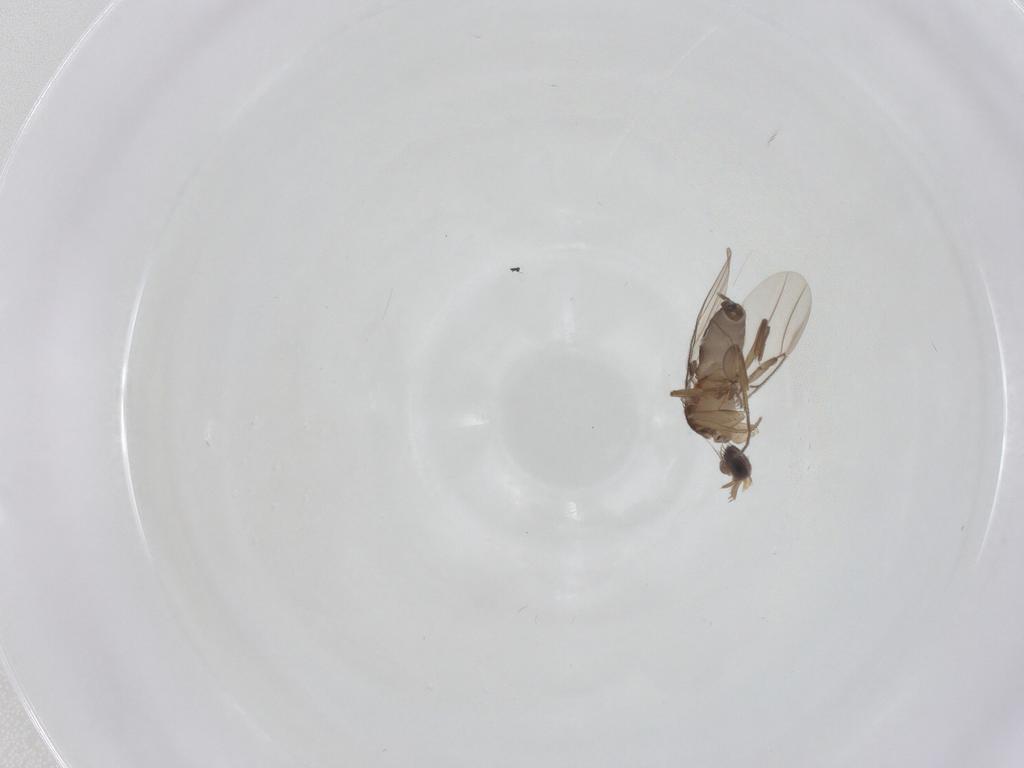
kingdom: Animalia
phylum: Arthropoda
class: Insecta
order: Diptera
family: Phoridae
